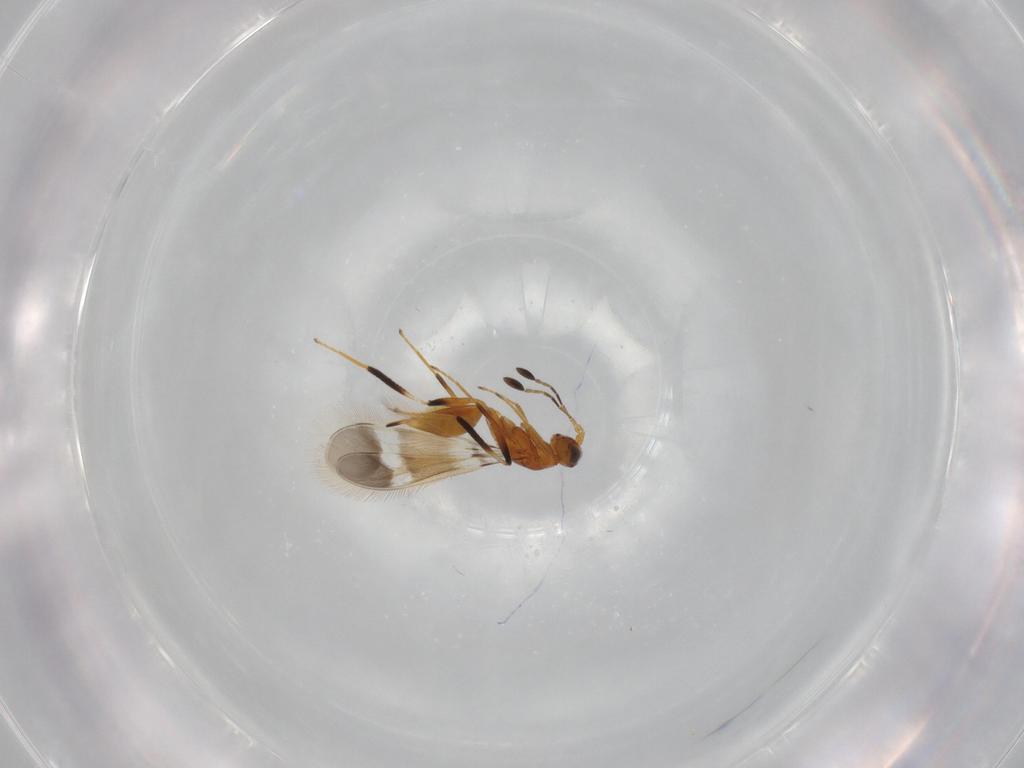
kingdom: Animalia
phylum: Arthropoda
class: Insecta
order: Hymenoptera
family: Mymaridae
